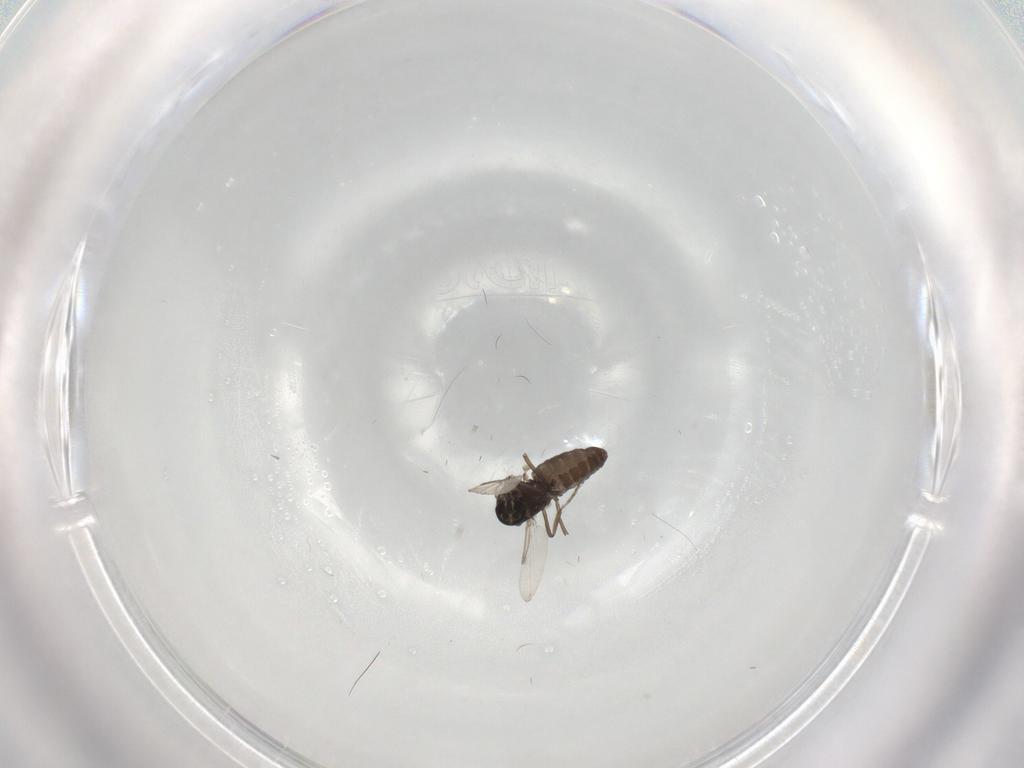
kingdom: Animalia
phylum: Arthropoda
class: Insecta
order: Diptera
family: Ceratopogonidae
